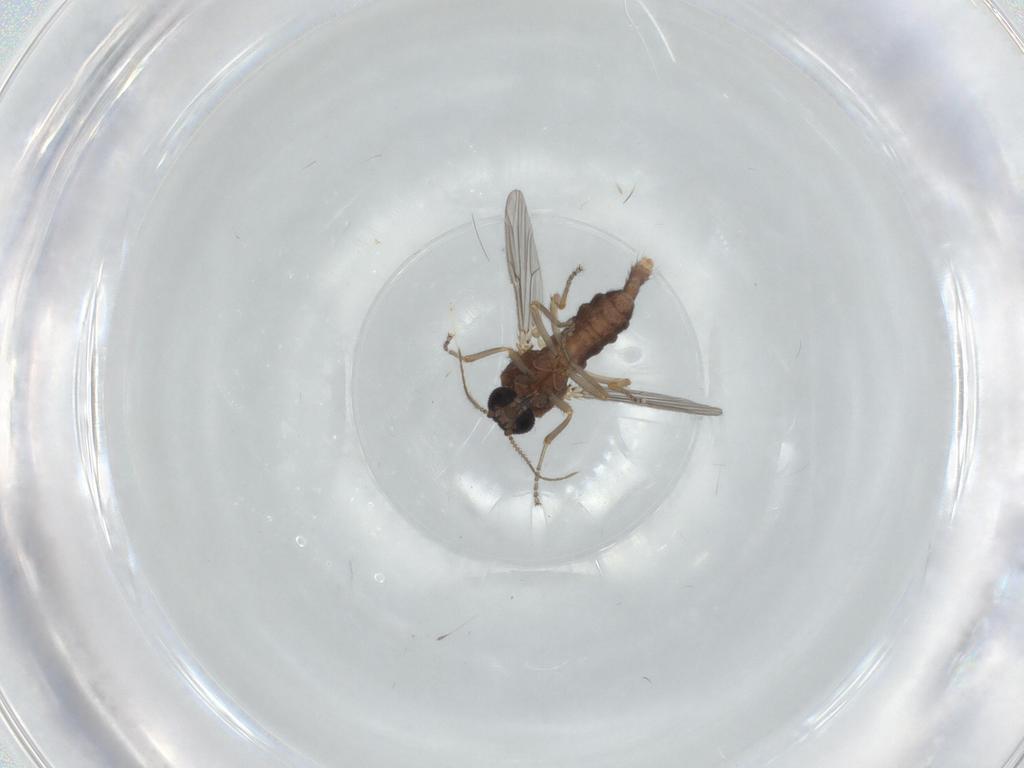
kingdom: Animalia
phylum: Arthropoda
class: Insecta
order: Diptera
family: Ceratopogonidae
